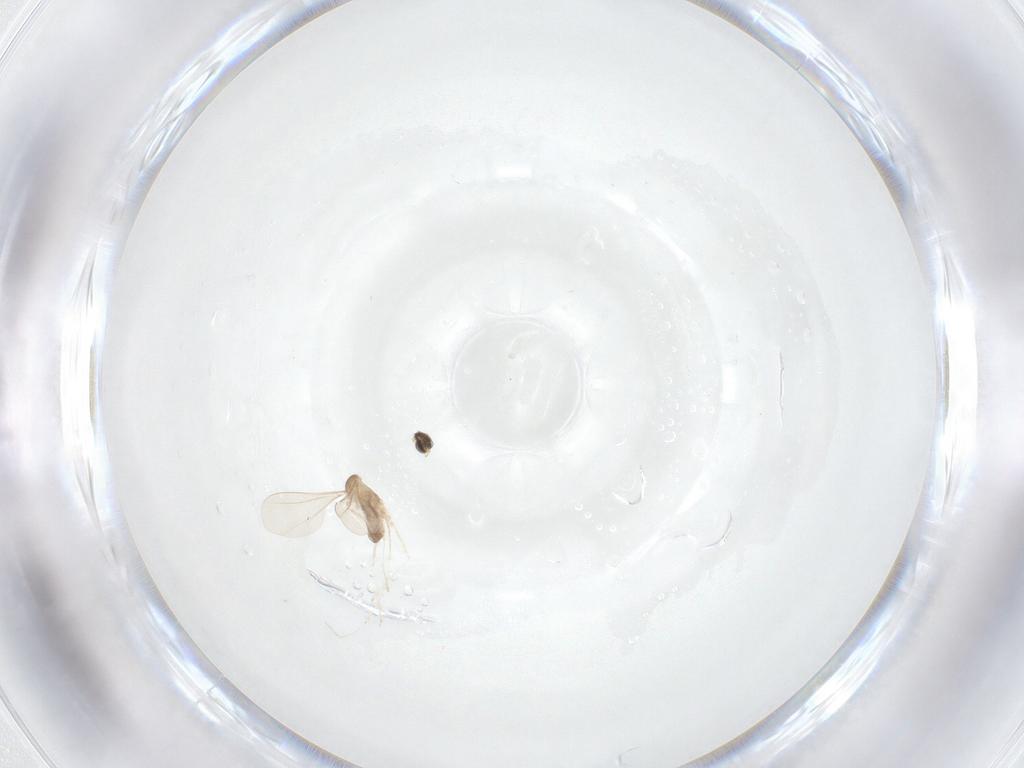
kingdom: Animalia
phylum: Arthropoda
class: Insecta
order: Diptera
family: Cecidomyiidae
